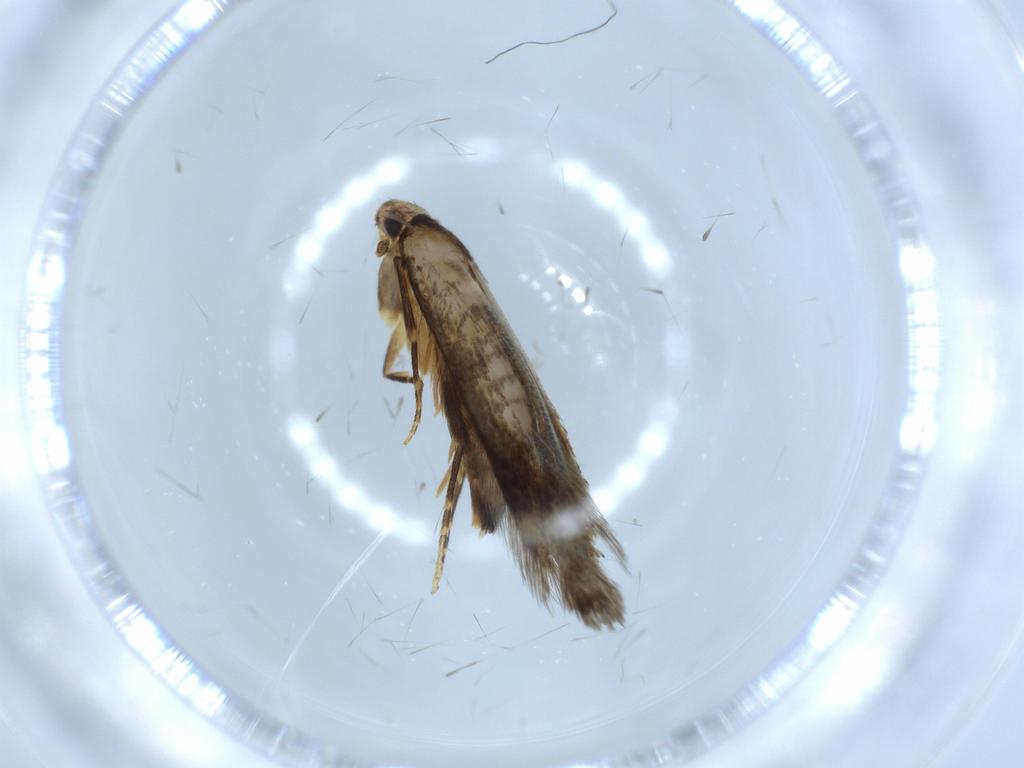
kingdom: Animalia
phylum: Arthropoda
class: Insecta
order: Lepidoptera
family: Tineidae
